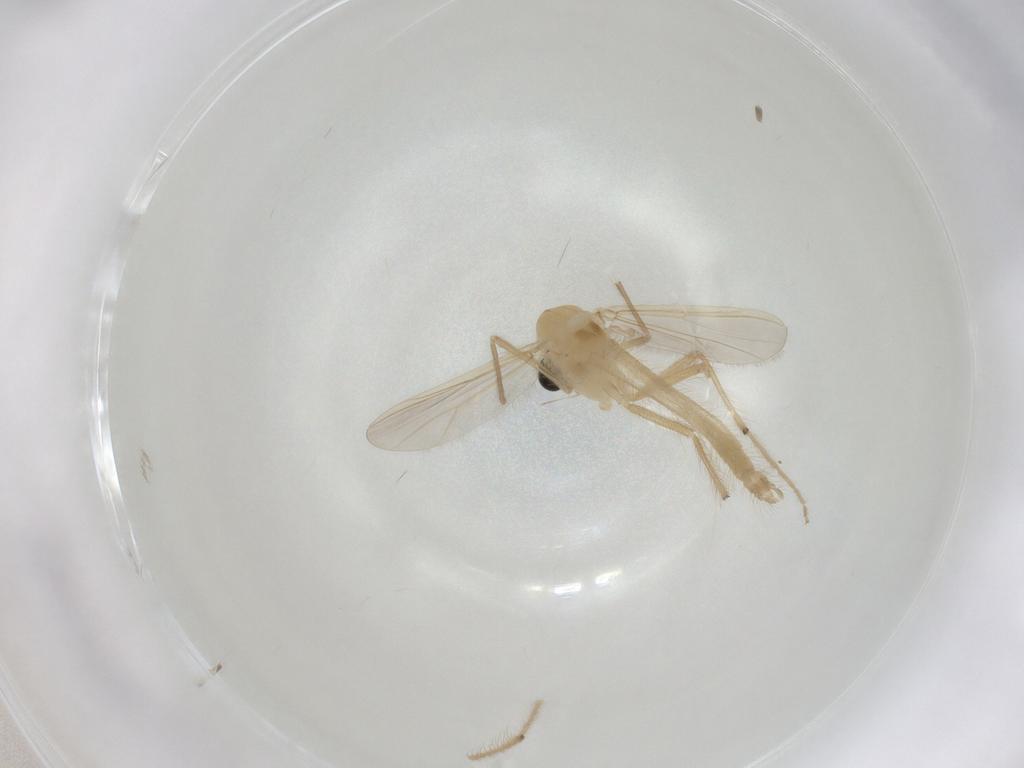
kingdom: Animalia
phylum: Arthropoda
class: Insecta
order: Diptera
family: Chironomidae
